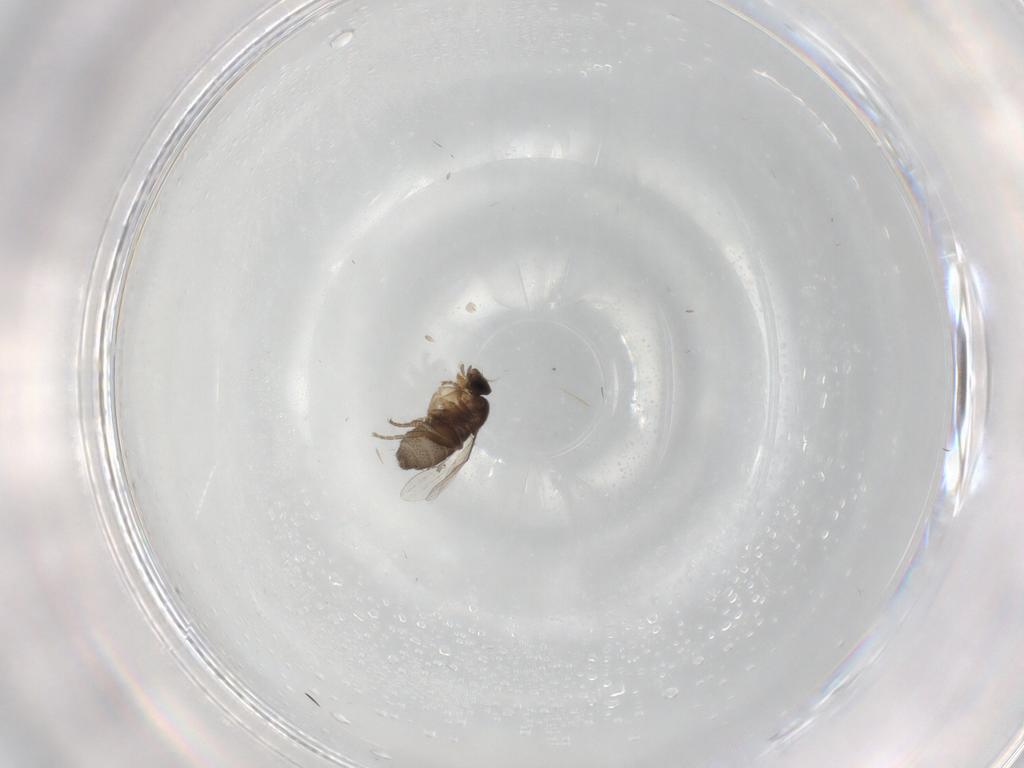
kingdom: Animalia
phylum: Arthropoda
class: Insecta
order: Diptera
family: Phoridae
